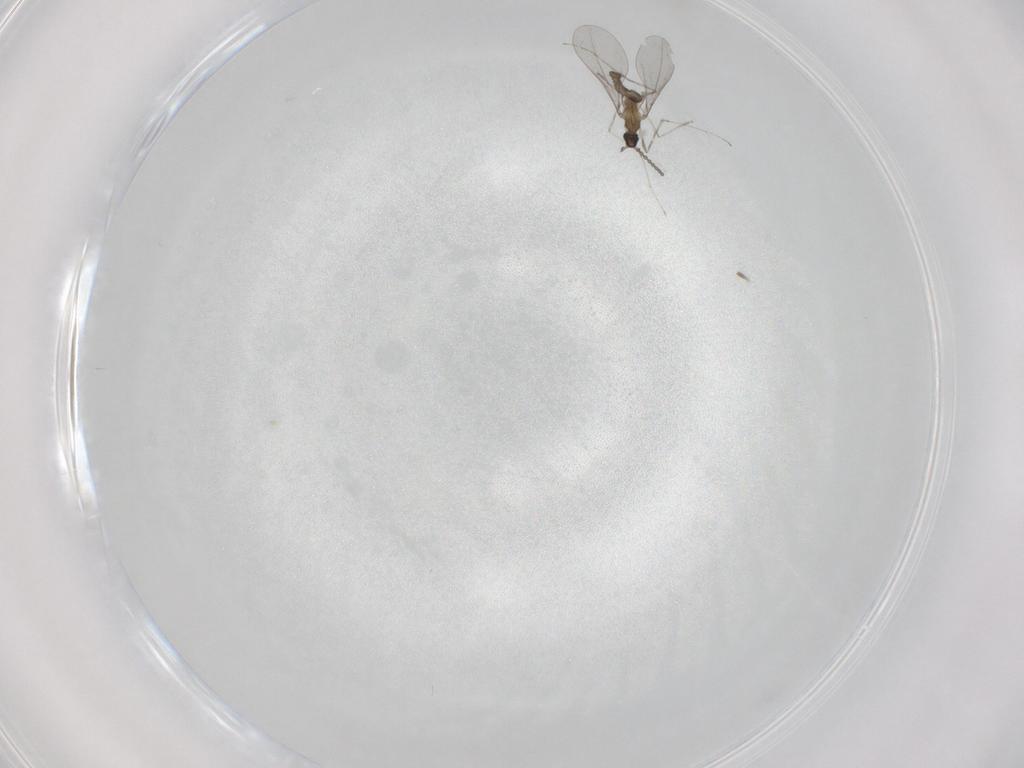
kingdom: Animalia
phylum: Arthropoda
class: Insecta
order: Diptera
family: Cecidomyiidae
